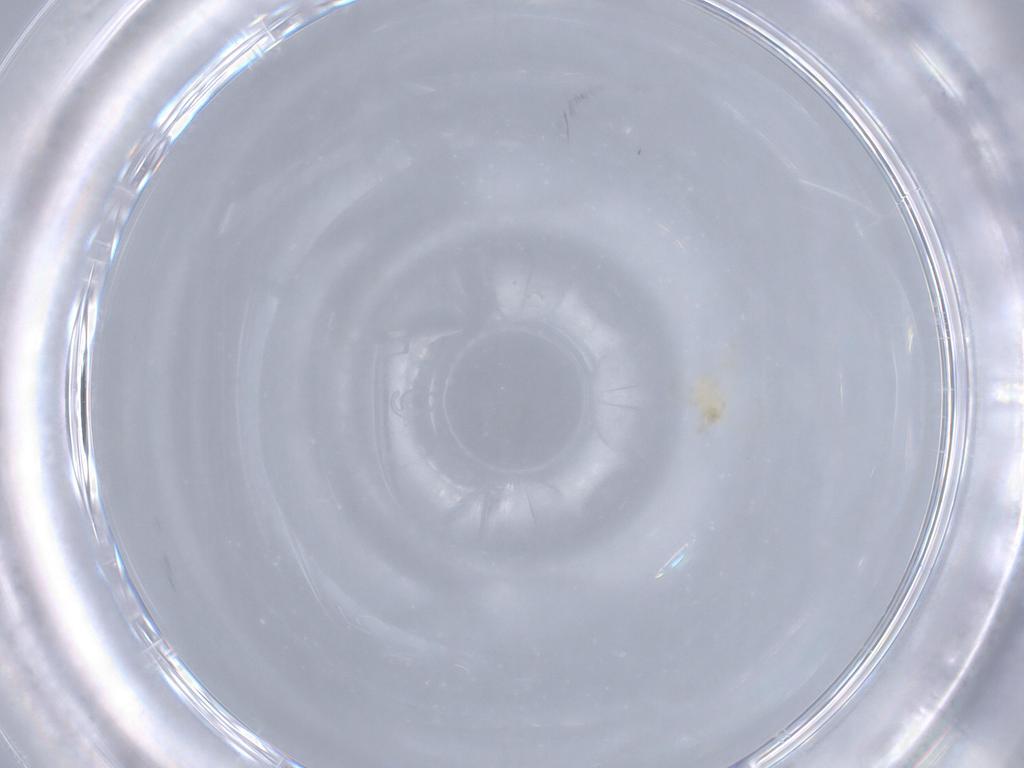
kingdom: Animalia
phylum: Arthropoda
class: Arachnida
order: Trombidiformes
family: Erythraeidae
